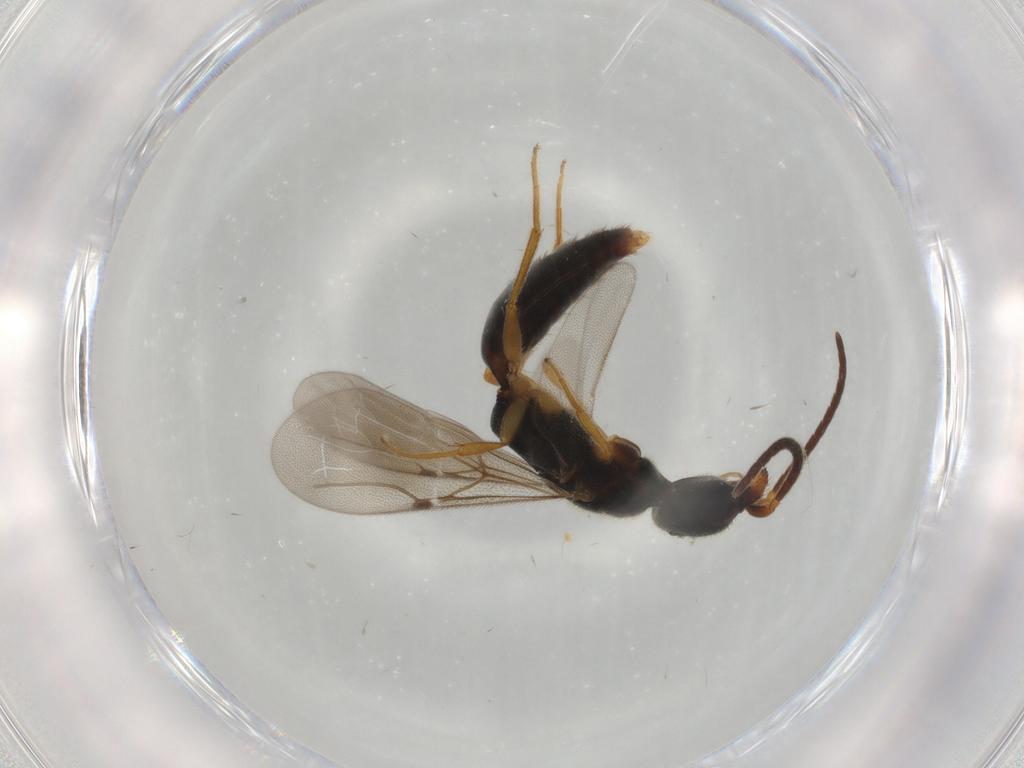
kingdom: Animalia
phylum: Arthropoda
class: Insecta
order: Hymenoptera
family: Bethylidae
